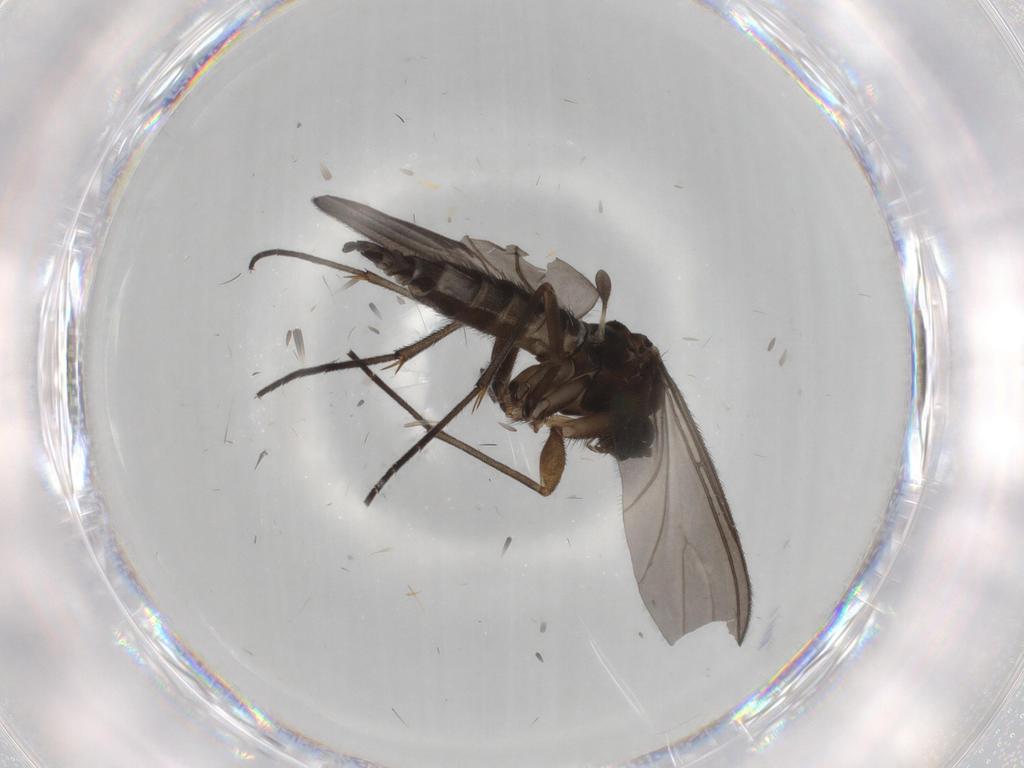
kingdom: Animalia
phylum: Arthropoda
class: Insecta
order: Diptera
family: Sciaridae
